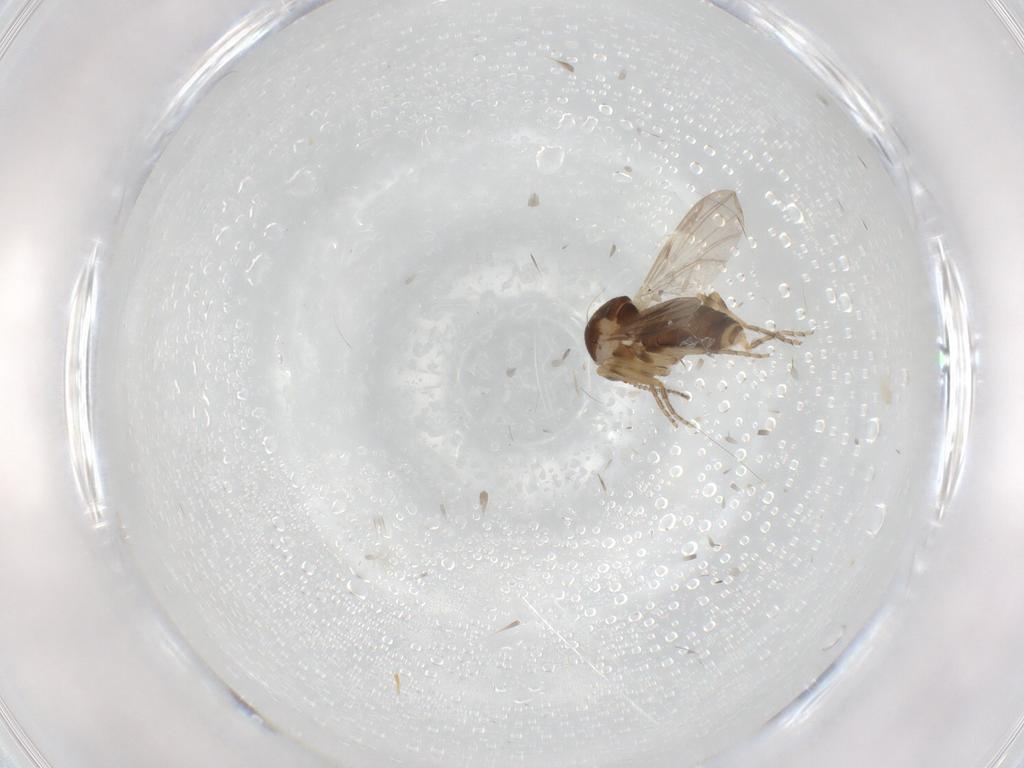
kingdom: Animalia
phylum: Arthropoda
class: Insecta
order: Diptera
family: Ceratopogonidae
